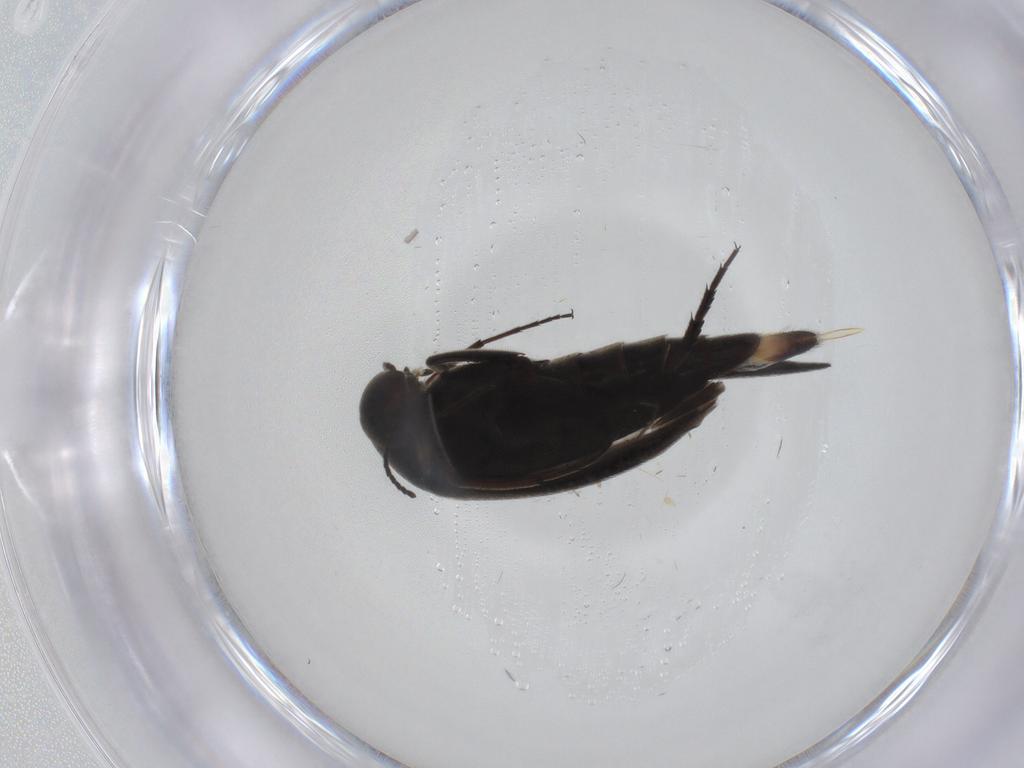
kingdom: Animalia
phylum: Arthropoda
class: Insecta
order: Coleoptera
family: Mordellidae
